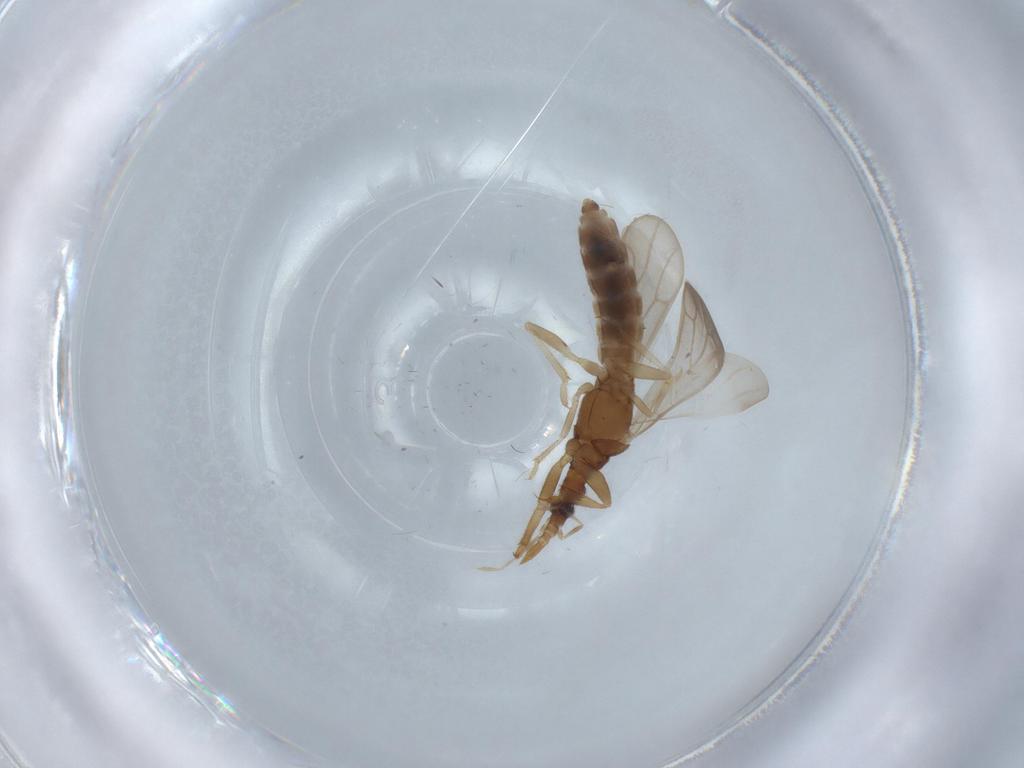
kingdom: Animalia
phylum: Arthropoda
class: Insecta
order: Hemiptera
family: Enicocephalidae
